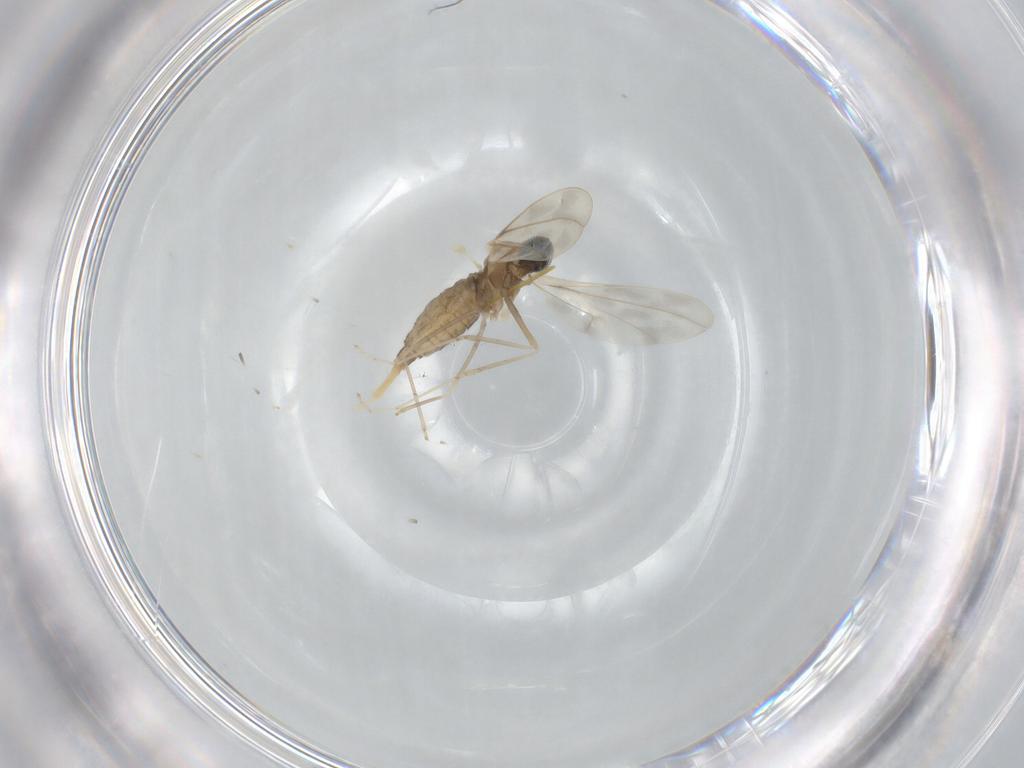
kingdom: Animalia
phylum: Arthropoda
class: Insecta
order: Diptera
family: Cecidomyiidae
